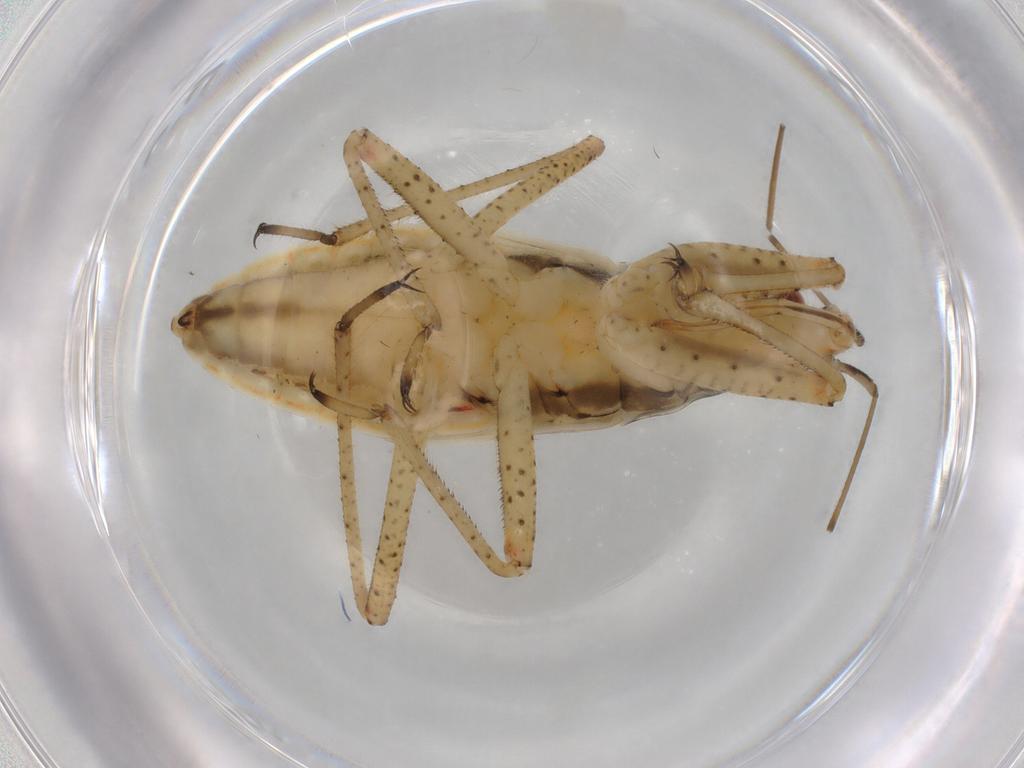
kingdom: Animalia
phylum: Arthropoda
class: Insecta
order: Hemiptera
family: Nabidae
